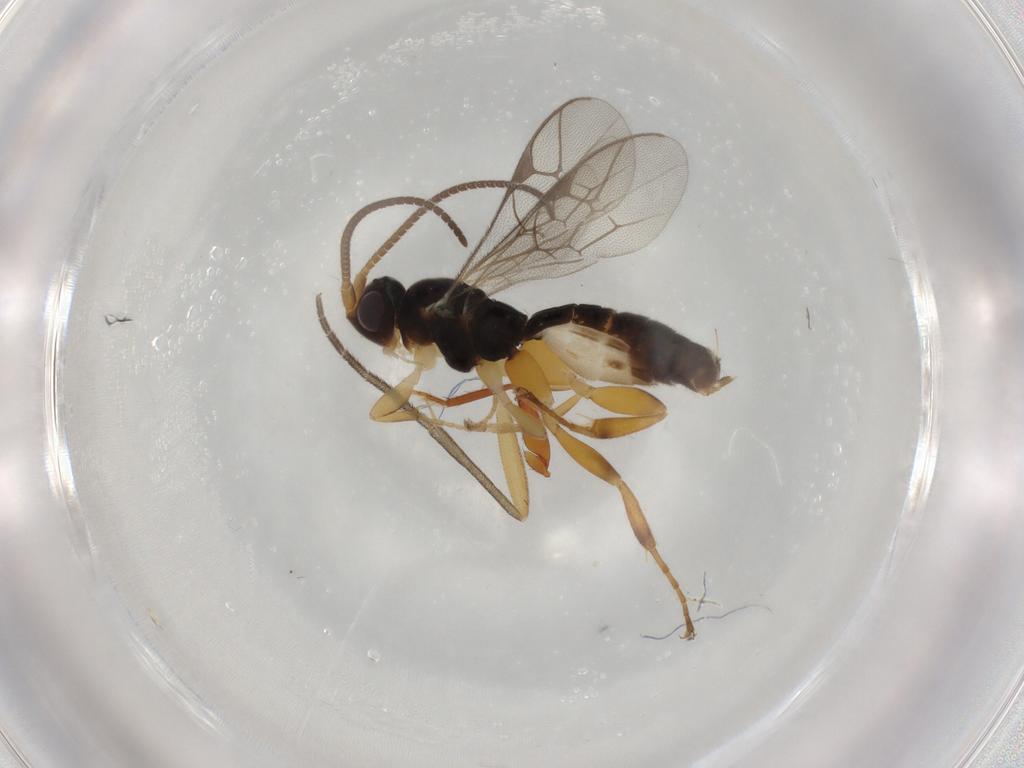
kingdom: Animalia
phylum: Arthropoda
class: Insecta
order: Hymenoptera
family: Ichneumonidae
